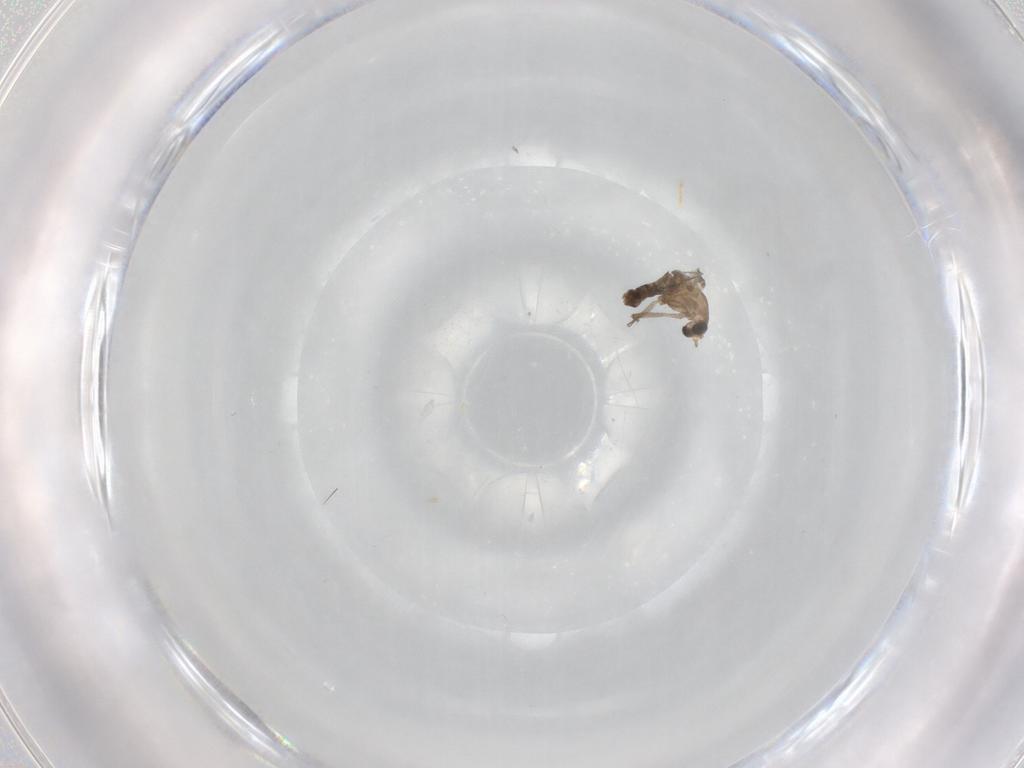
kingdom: Animalia
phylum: Arthropoda
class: Insecta
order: Diptera
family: Sciaridae
